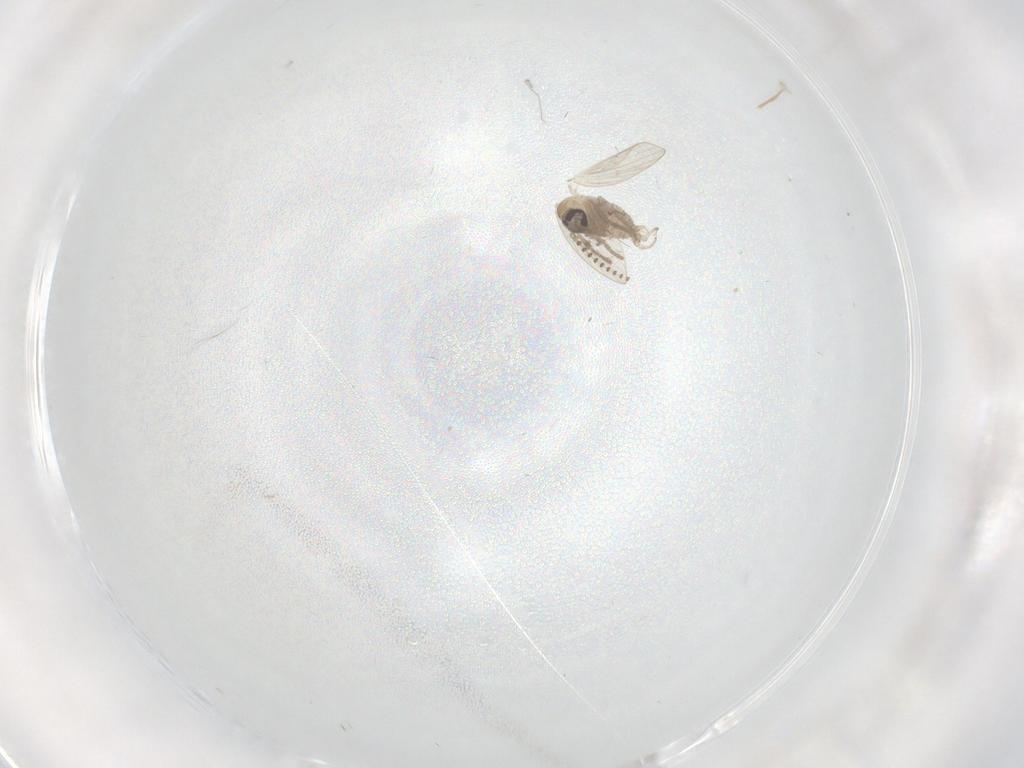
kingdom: Animalia
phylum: Arthropoda
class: Insecta
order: Diptera
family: Psychodidae
